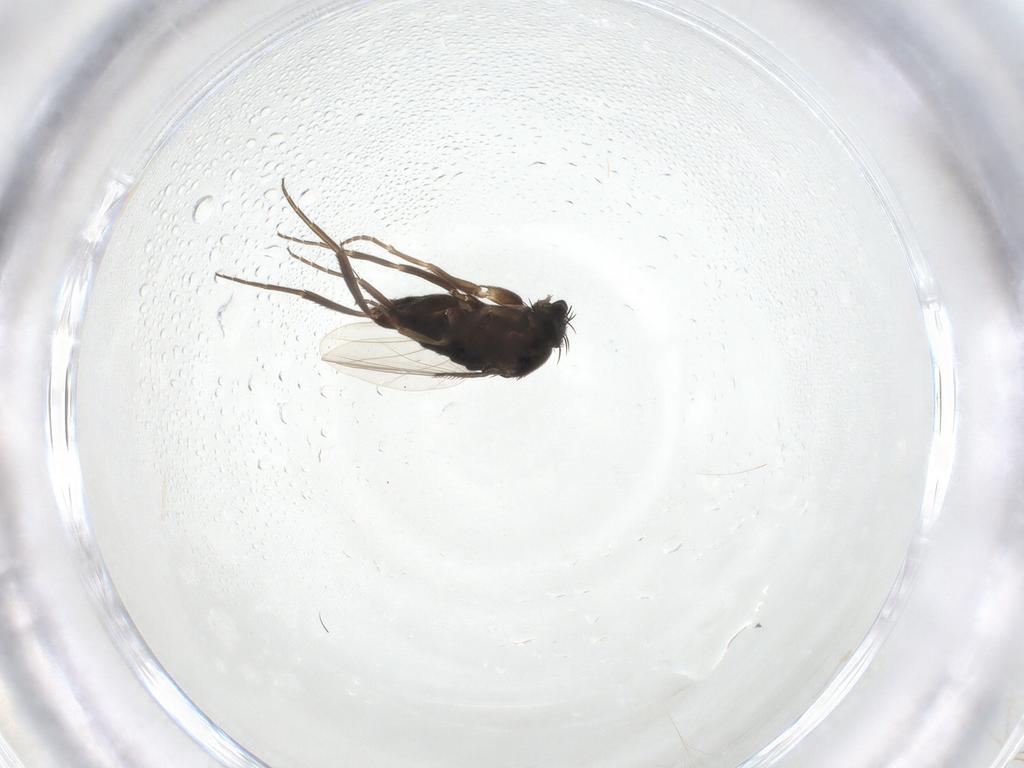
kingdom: Animalia
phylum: Arthropoda
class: Insecta
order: Diptera
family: Phoridae
